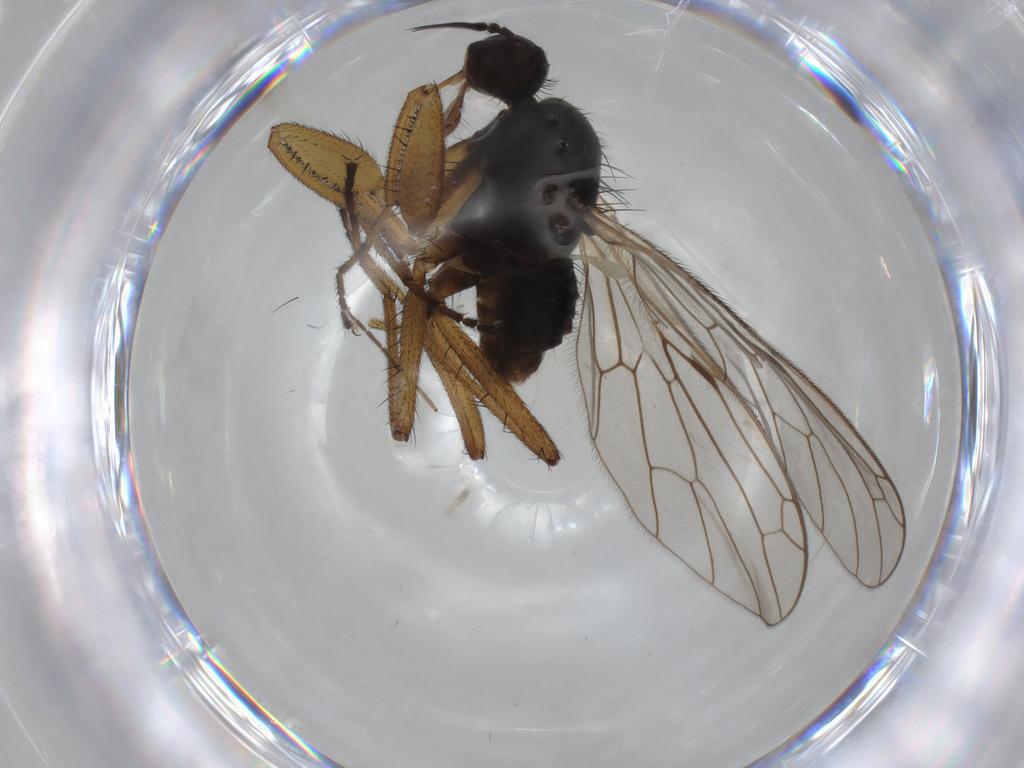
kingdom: Animalia
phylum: Arthropoda
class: Insecta
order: Diptera
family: Empididae
